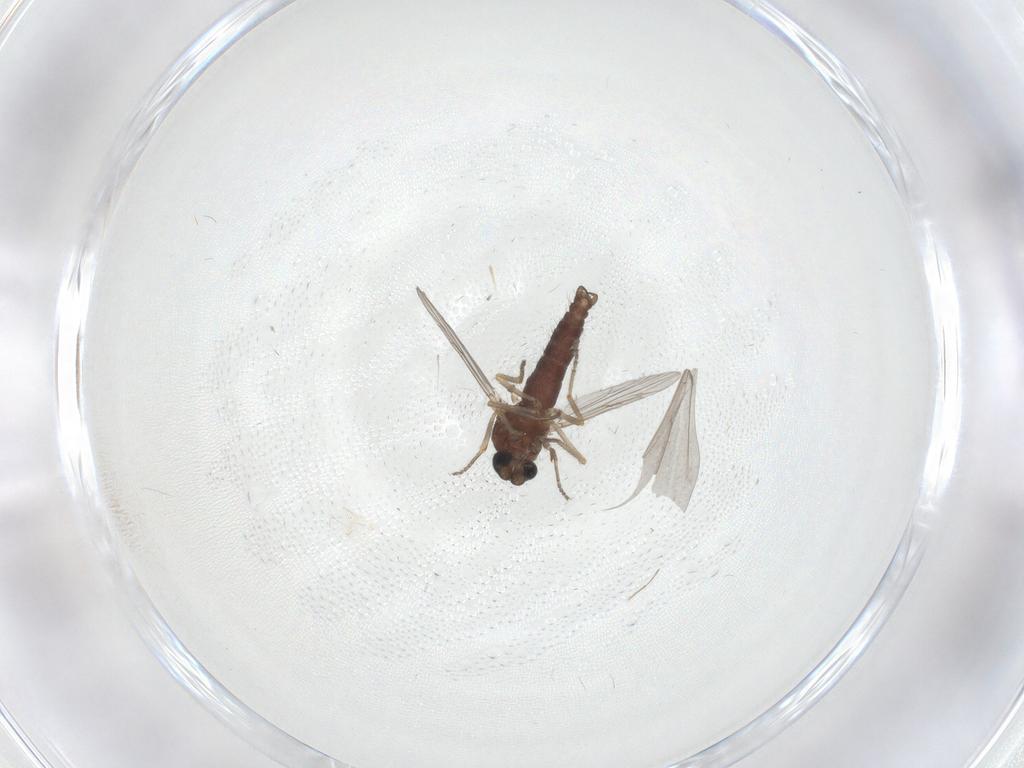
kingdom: Animalia
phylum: Arthropoda
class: Insecta
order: Diptera
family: Ceratopogonidae
